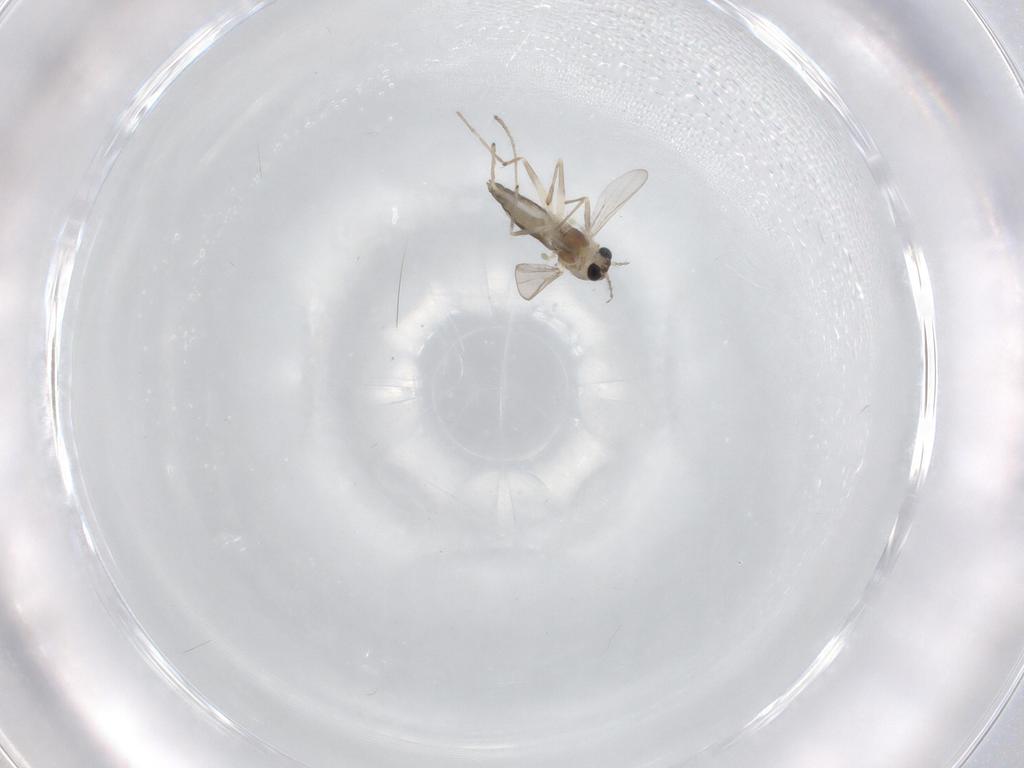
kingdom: Animalia
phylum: Arthropoda
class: Insecta
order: Diptera
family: Chironomidae
